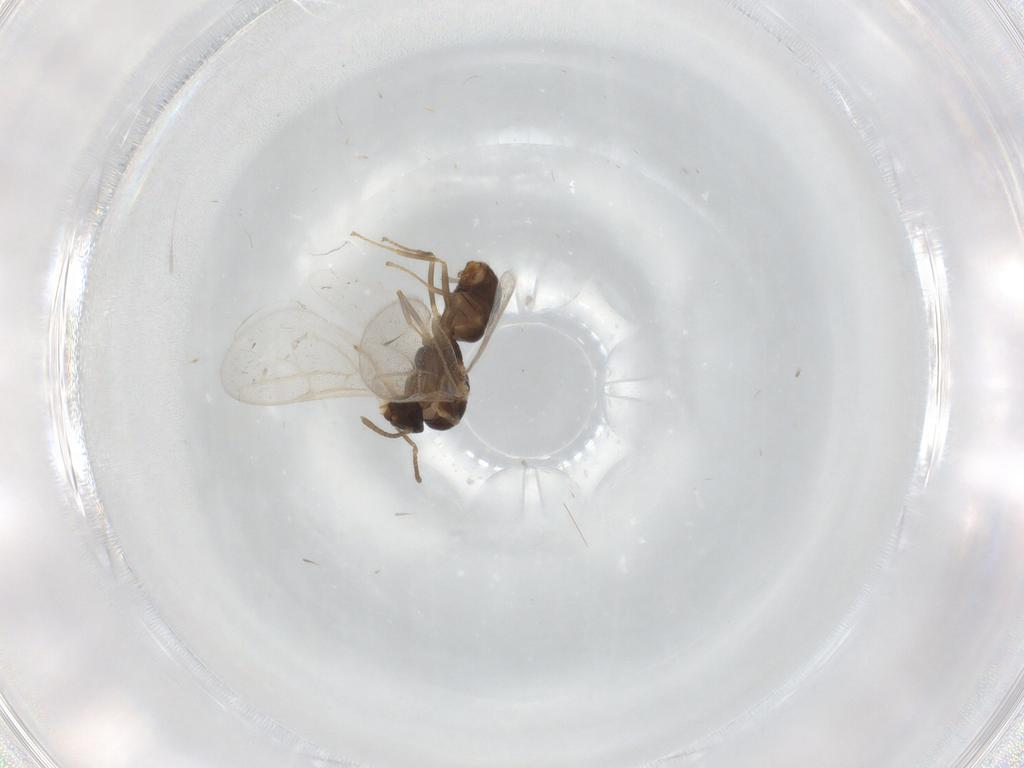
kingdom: Animalia
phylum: Arthropoda
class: Insecta
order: Hymenoptera
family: Formicidae
